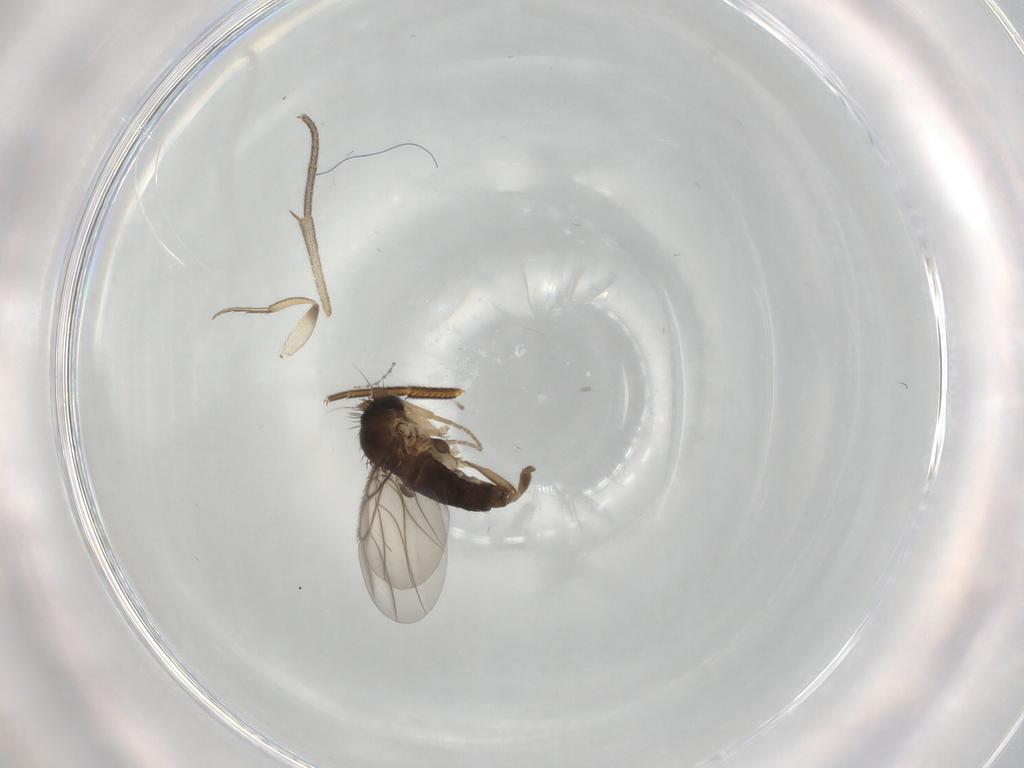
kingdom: Animalia
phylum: Arthropoda
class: Insecta
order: Diptera
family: Phoridae
